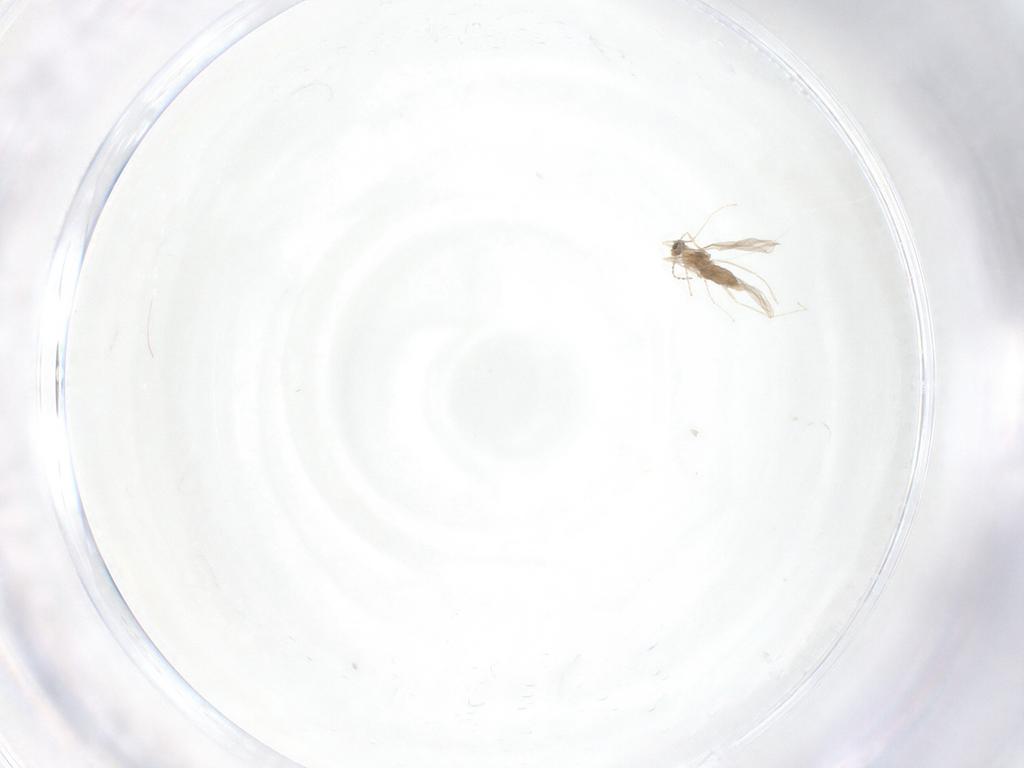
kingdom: Animalia
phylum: Arthropoda
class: Insecta
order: Diptera
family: Cecidomyiidae
